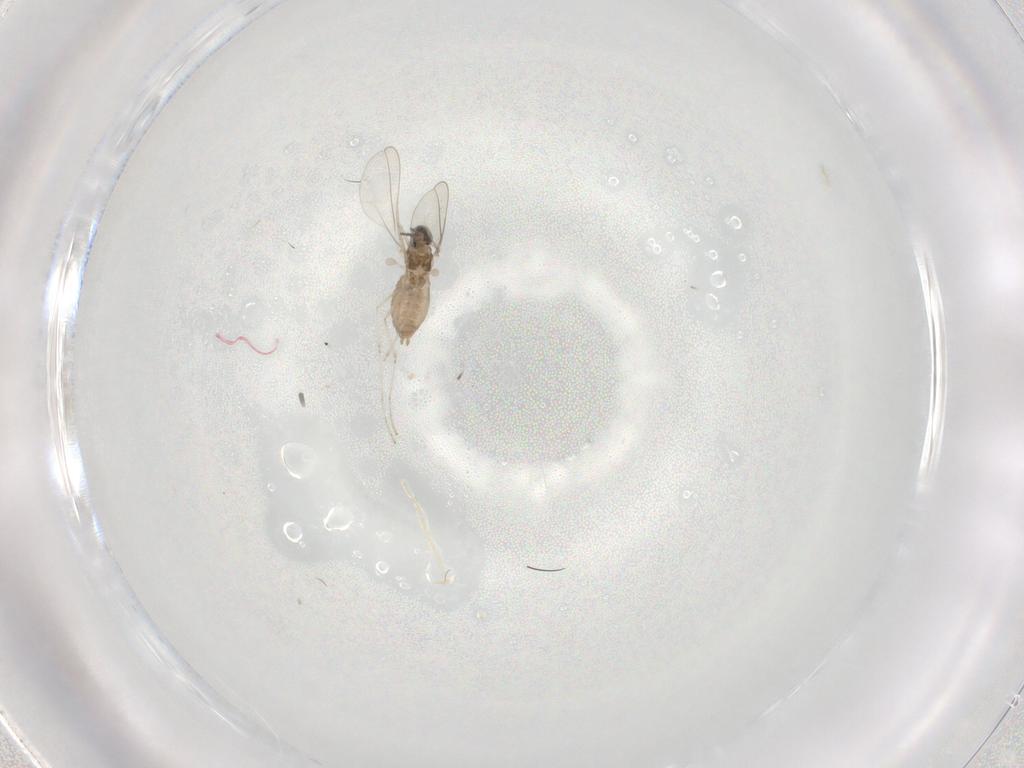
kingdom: Animalia
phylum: Arthropoda
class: Insecta
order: Diptera
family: Cecidomyiidae
